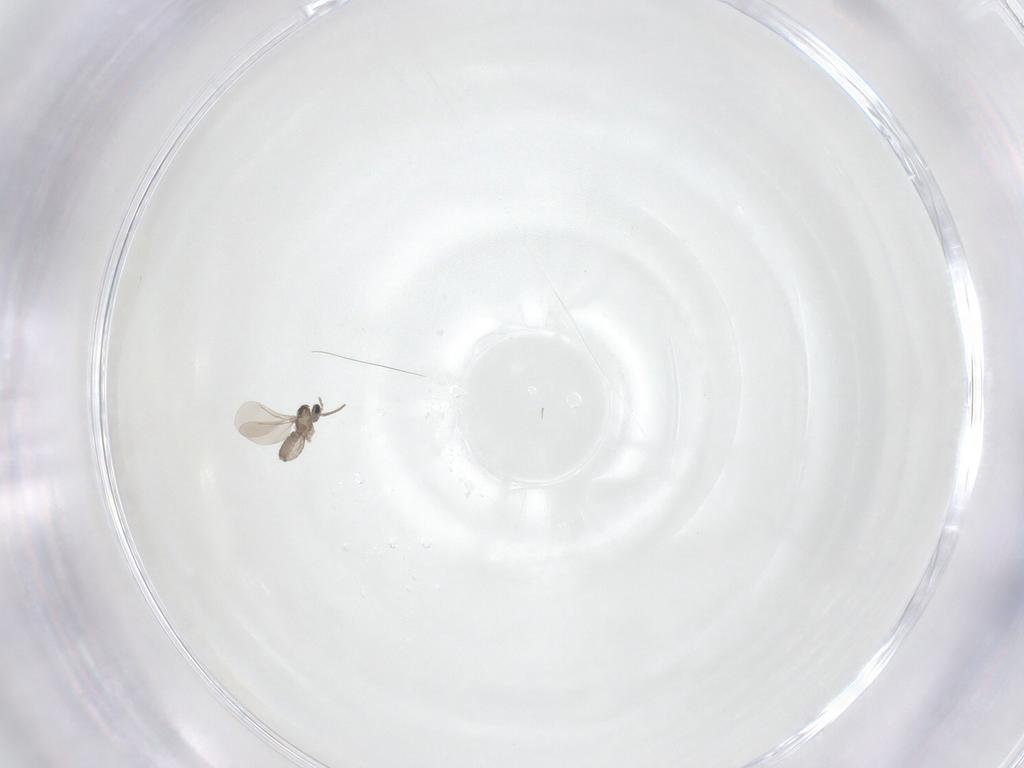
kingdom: Animalia
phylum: Arthropoda
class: Insecta
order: Diptera
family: Chironomidae
